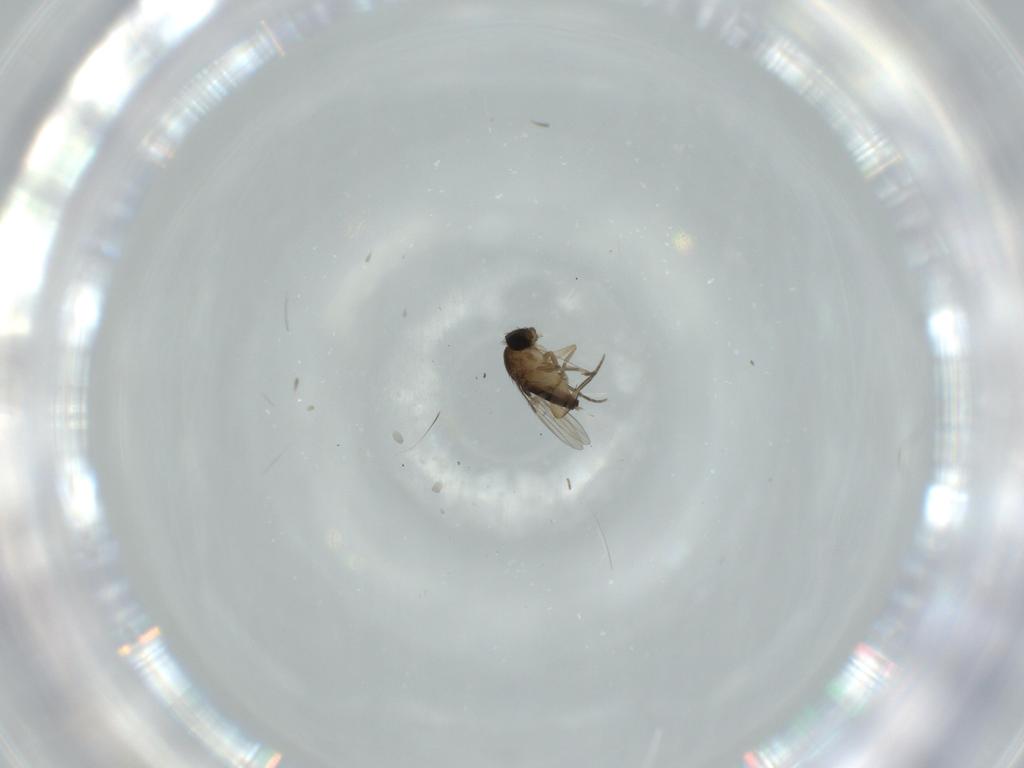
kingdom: Animalia
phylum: Arthropoda
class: Insecta
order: Diptera
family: Phoridae
